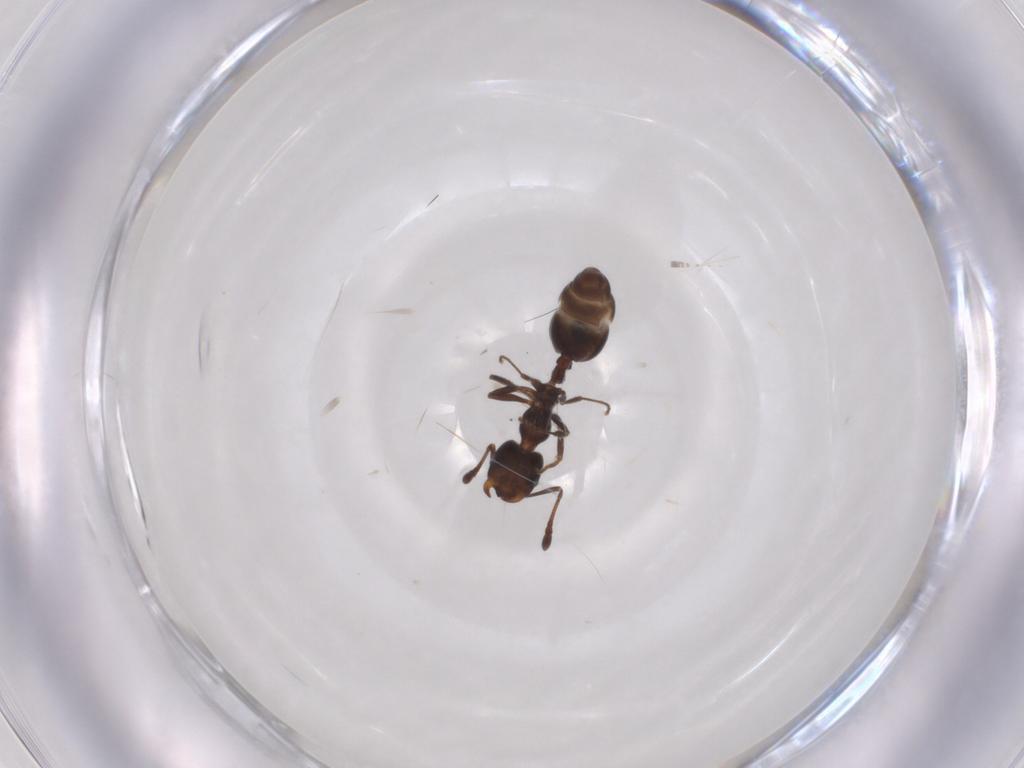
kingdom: Animalia
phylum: Arthropoda
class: Insecta
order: Hymenoptera
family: Formicidae
